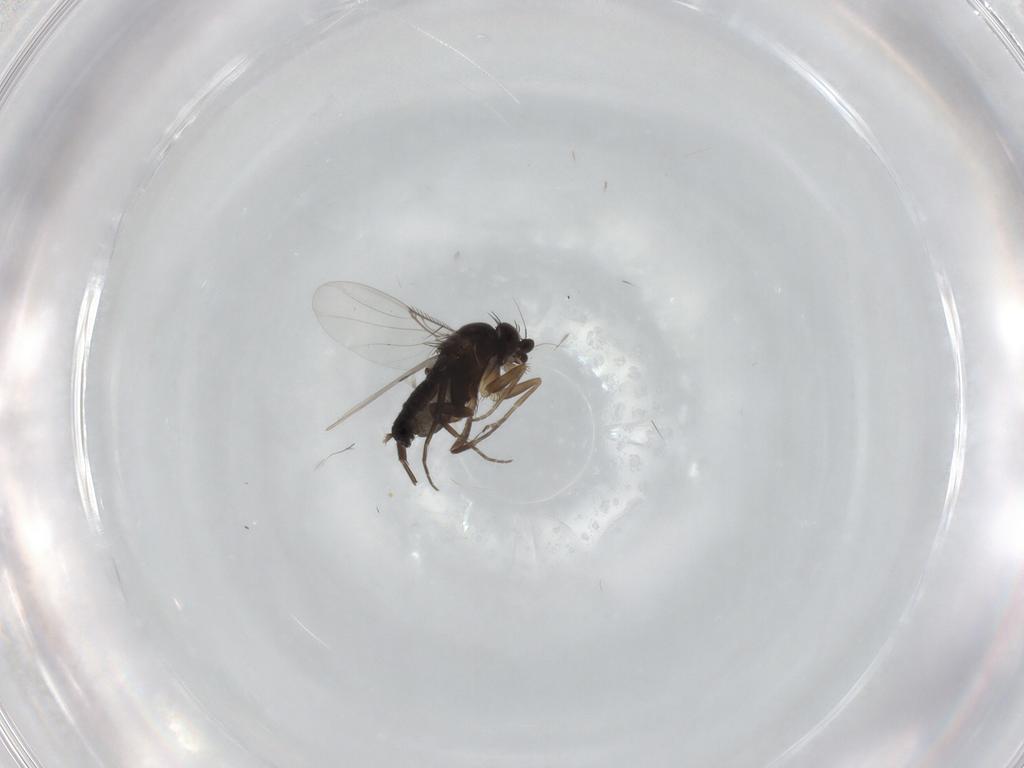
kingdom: Animalia
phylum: Arthropoda
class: Insecta
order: Diptera
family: Phoridae
